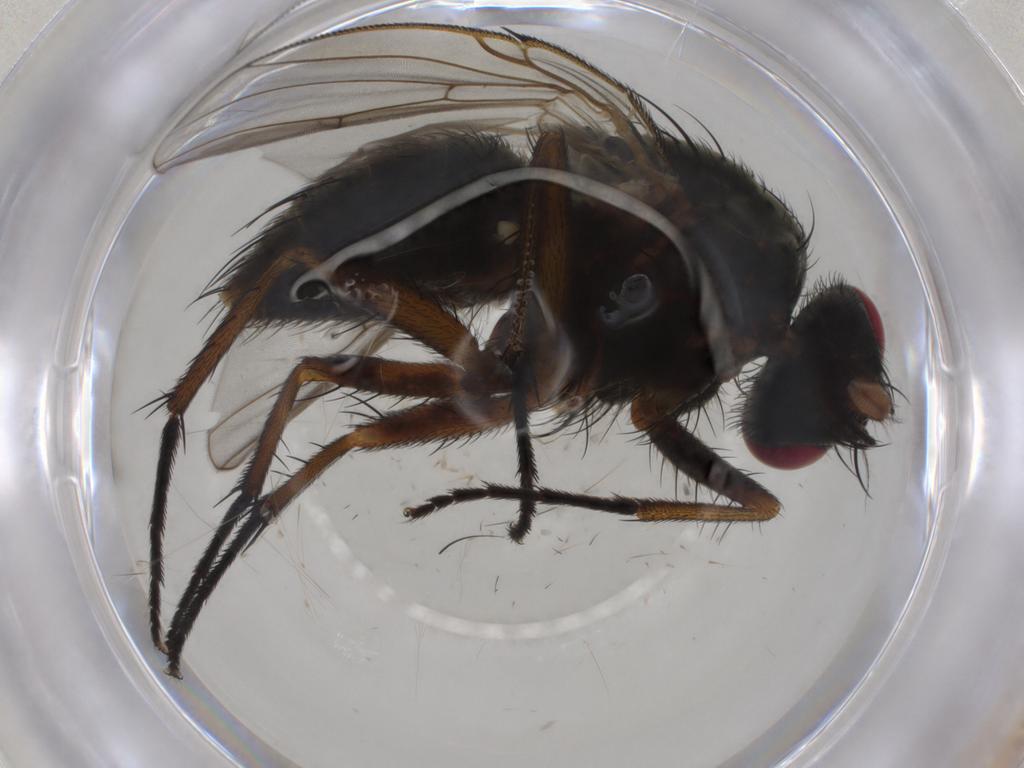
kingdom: Animalia
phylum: Arthropoda
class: Insecta
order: Diptera
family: Muscidae
